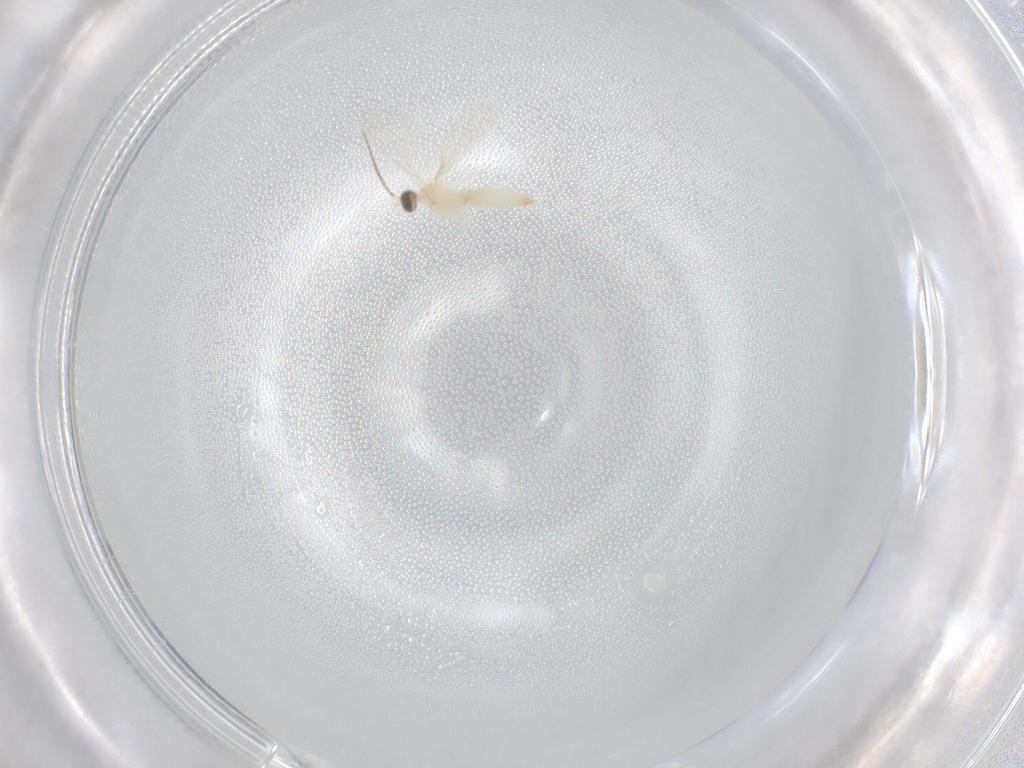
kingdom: Animalia
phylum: Arthropoda
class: Insecta
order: Diptera
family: Cecidomyiidae
